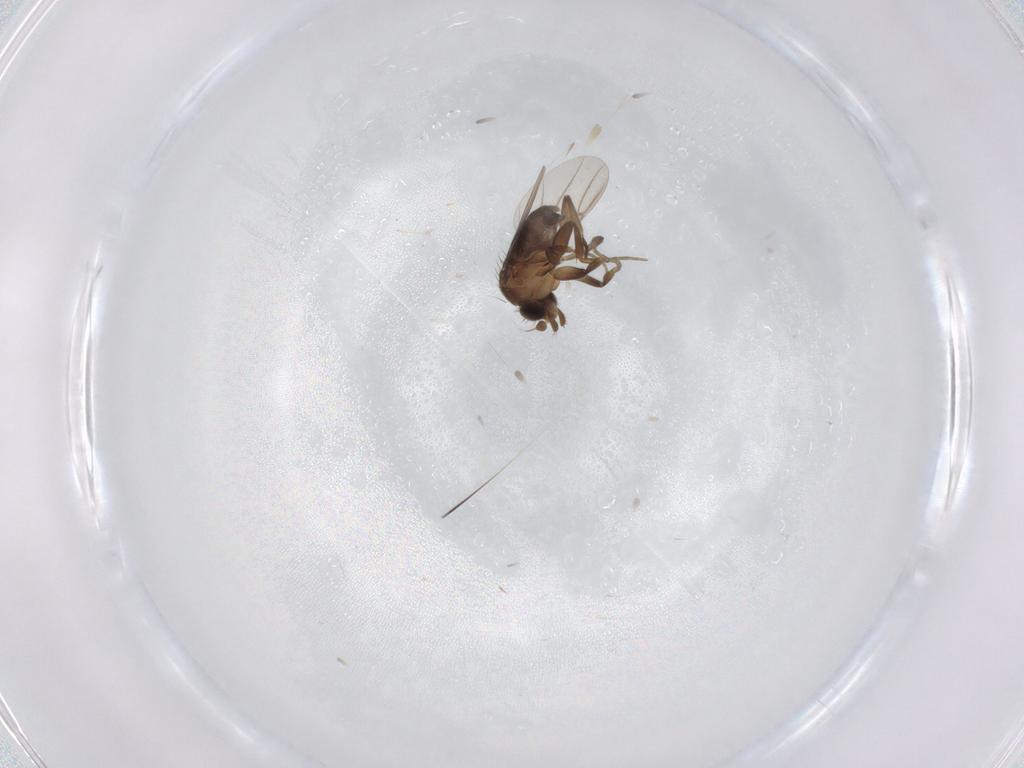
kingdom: Animalia
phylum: Arthropoda
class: Insecta
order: Diptera
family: Phoridae
